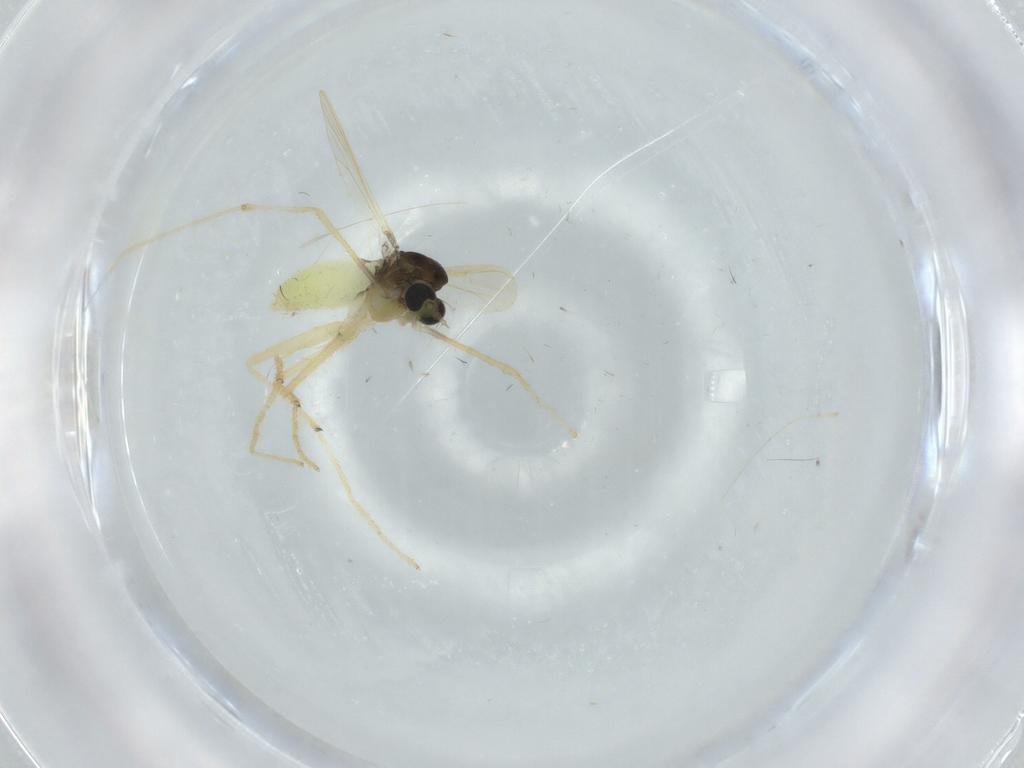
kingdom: Animalia
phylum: Arthropoda
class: Insecta
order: Diptera
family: Chironomidae
